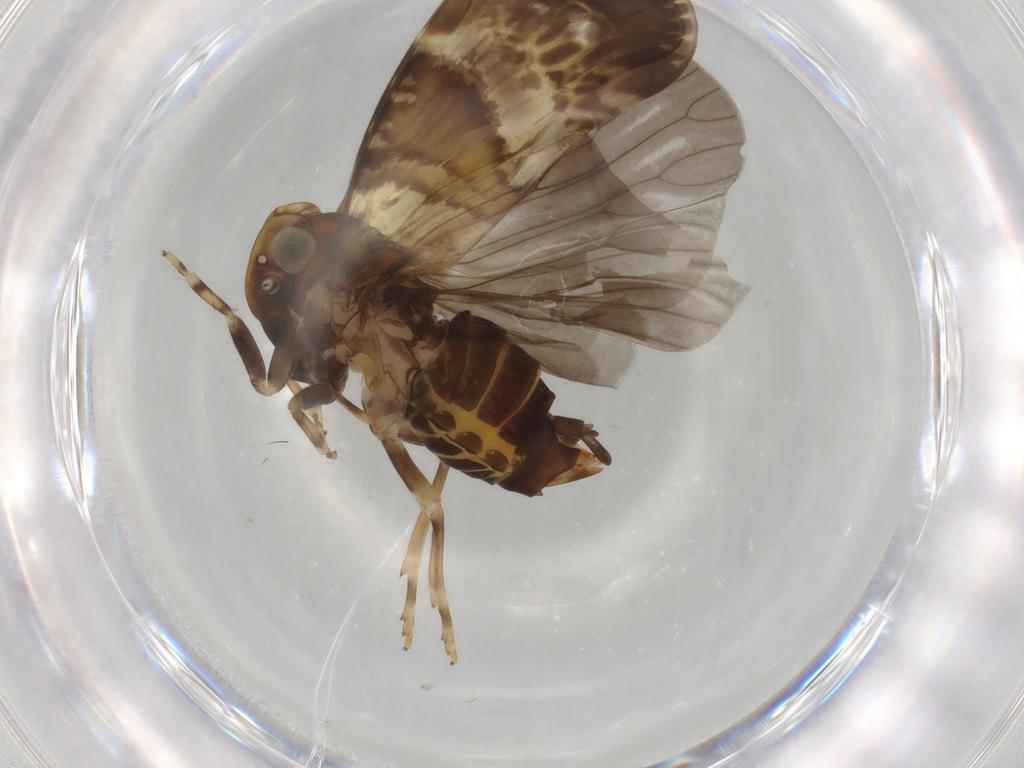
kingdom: Animalia
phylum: Arthropoda
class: Insecta
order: Hemiptera
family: Cixiidae
